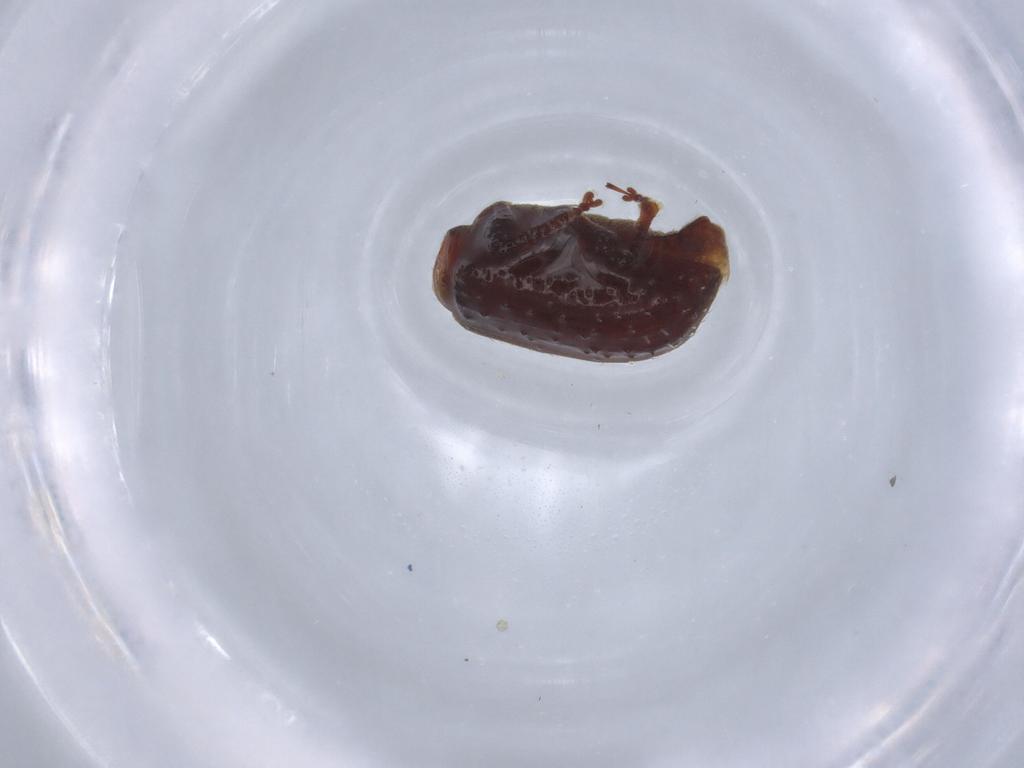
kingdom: Animalia
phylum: Arthropoda
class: Insecta
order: Coleoptera
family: Curculionidae
